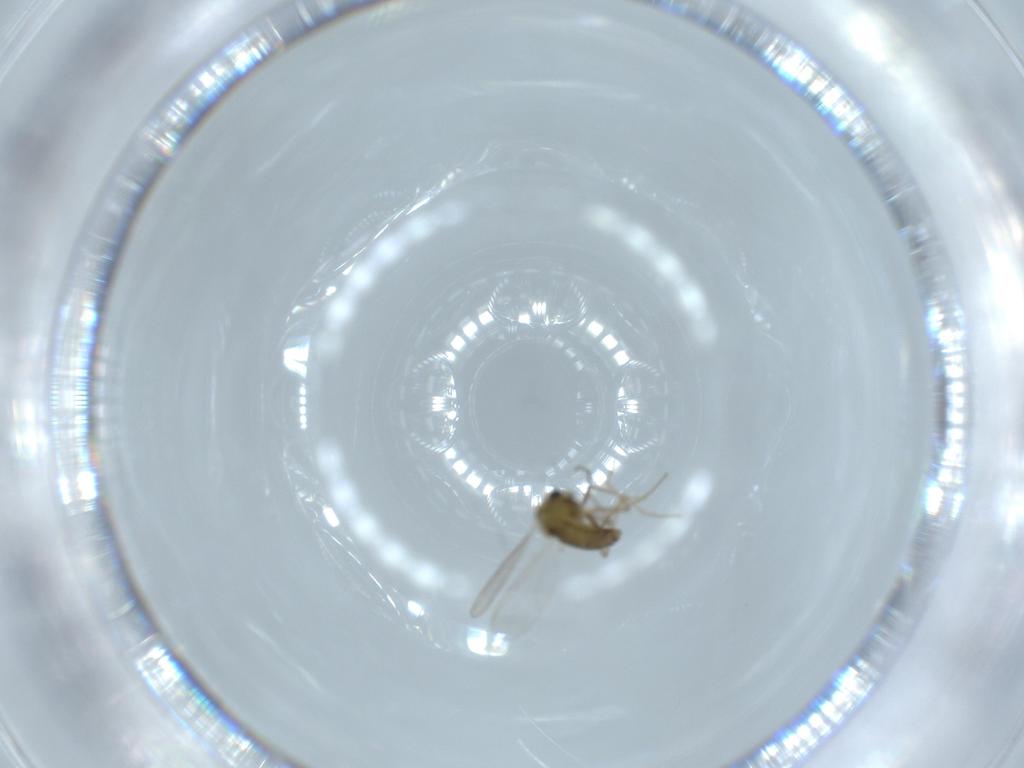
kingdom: Animalia
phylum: Arthropoda
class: Insecta
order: Diptera
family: Chironomidae
